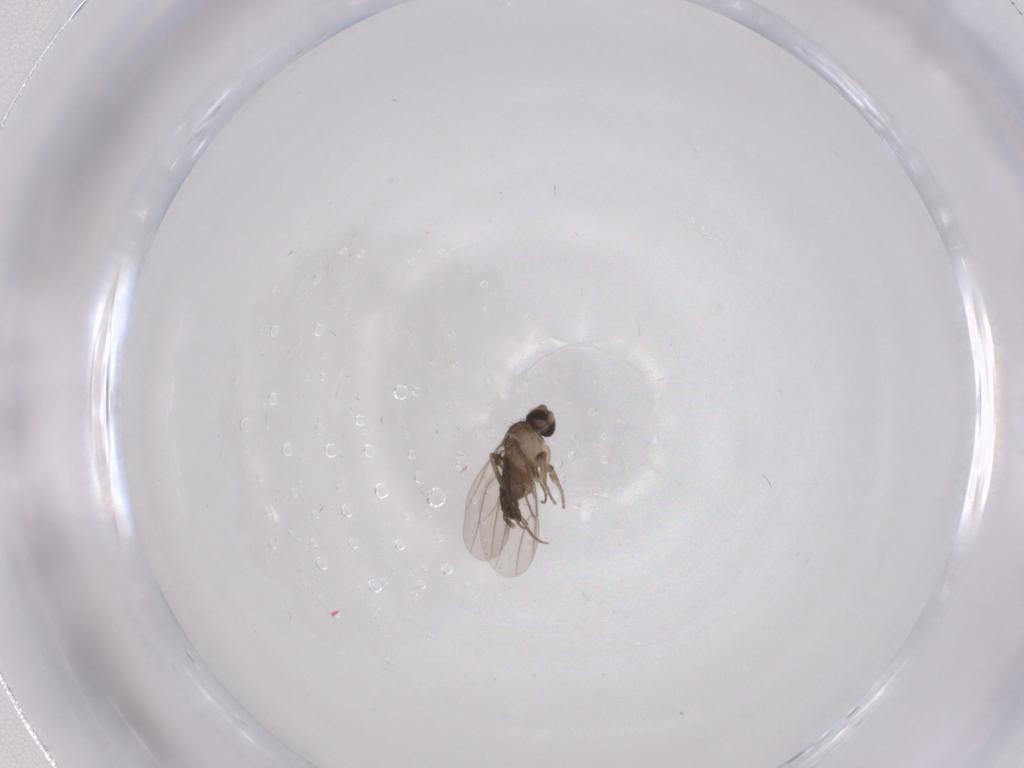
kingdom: Animalia
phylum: Arthropoda
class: Insecta
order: Diptera
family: Phoridae
